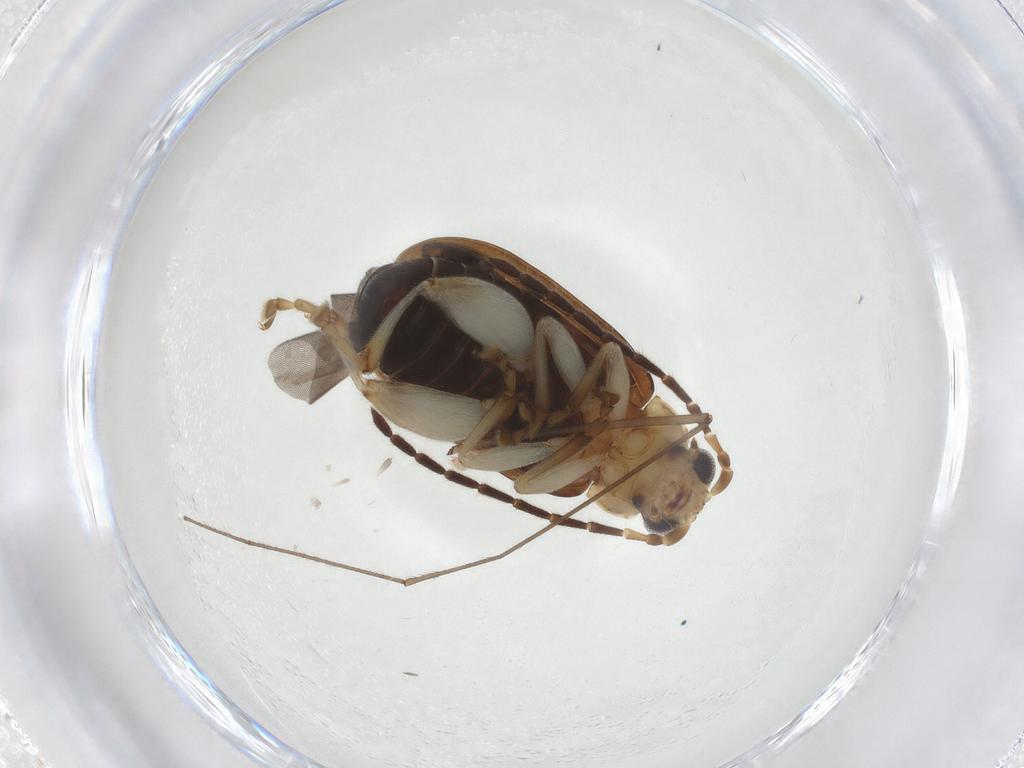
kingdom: Animalia
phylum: Arthropoda
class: Insecta
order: Coleoptera
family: Chrysomelidae
